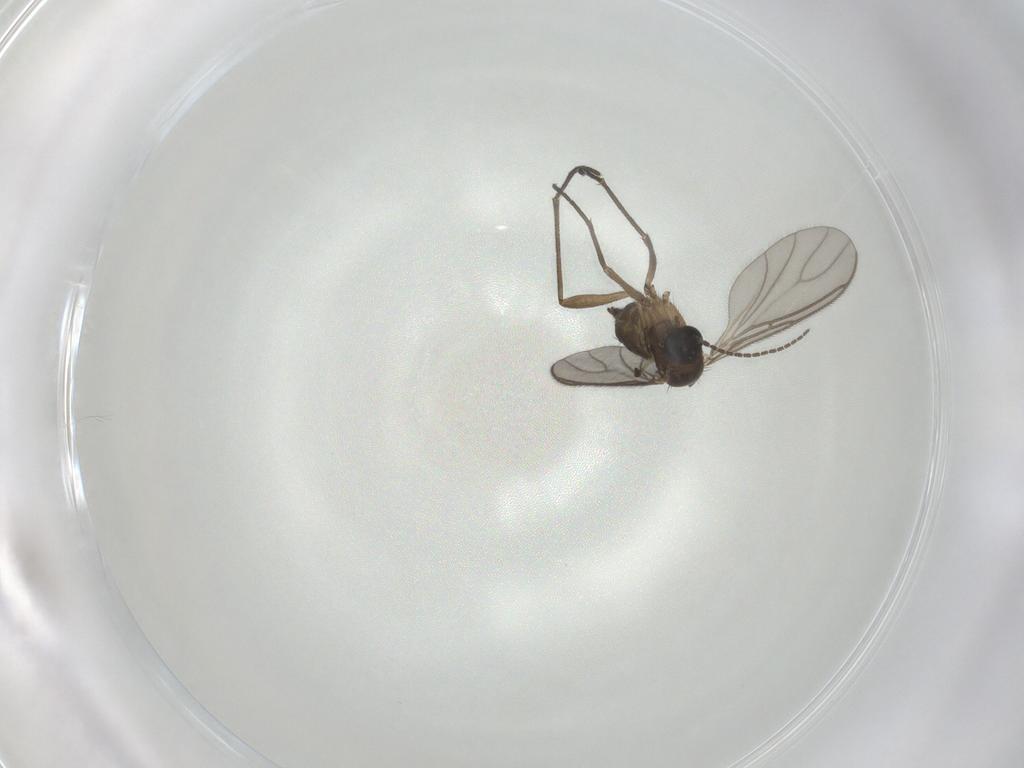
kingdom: Animalia
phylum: Arthropoda
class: Insecta
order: Diptera
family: Sciaridae
